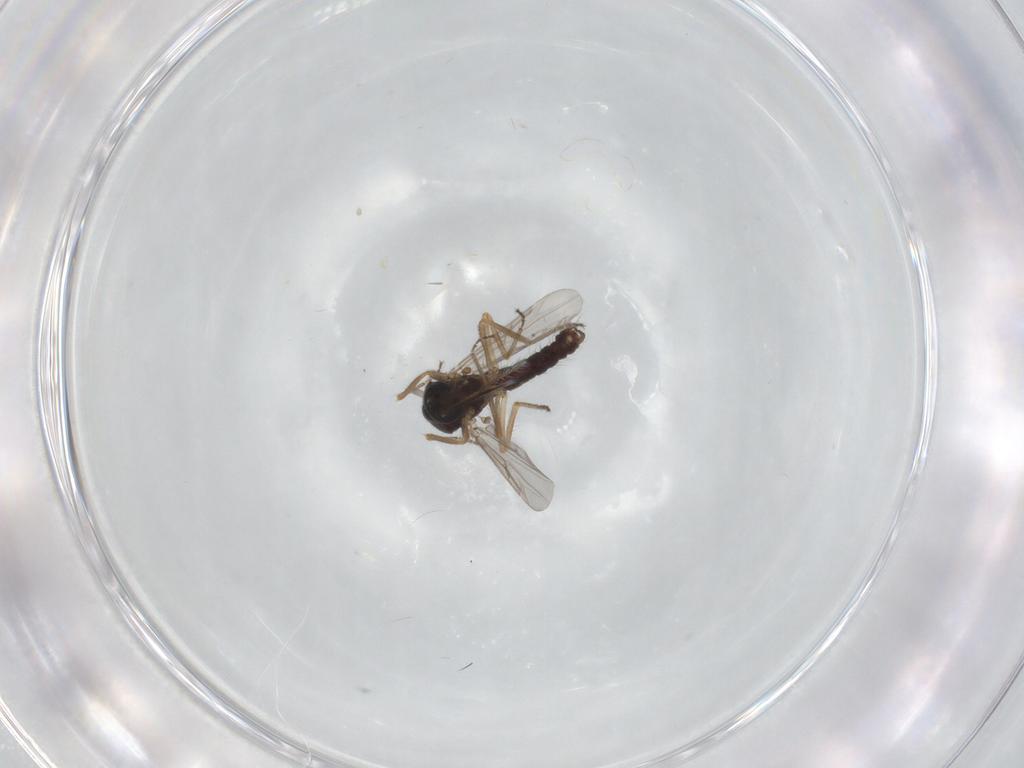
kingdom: Animalia
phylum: Arthropoda
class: Insecta
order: Diptera
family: Ceratopogonidae
